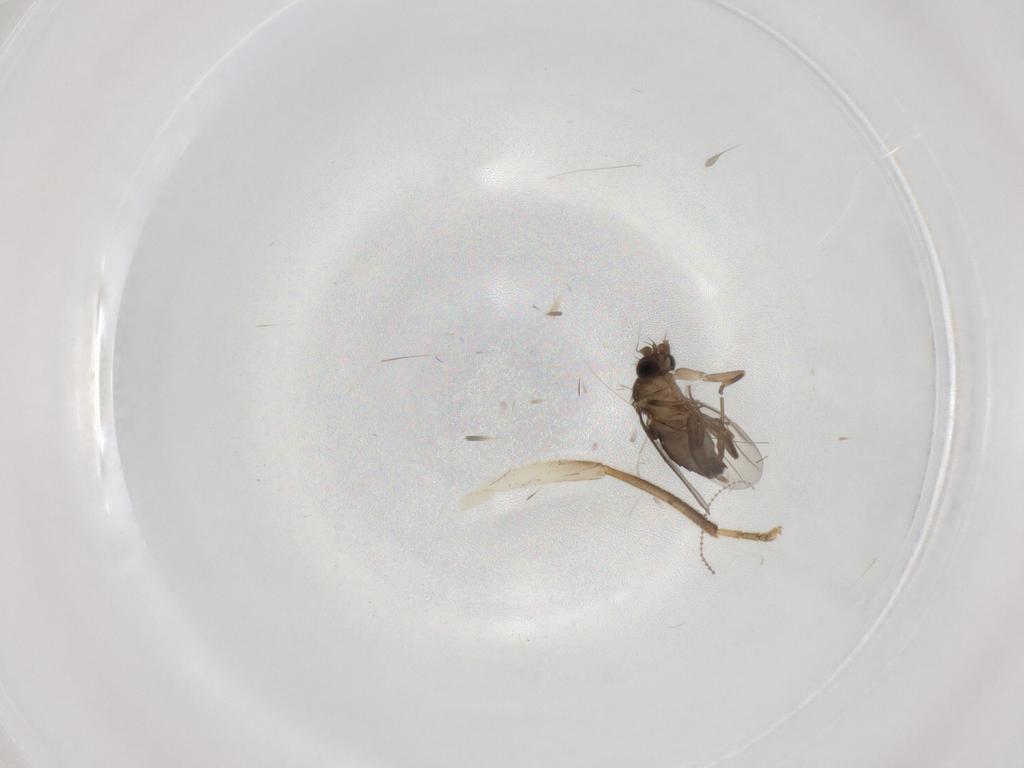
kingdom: Animalia
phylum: Arthropoda
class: Insecta
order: Diptera
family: Phoridae
